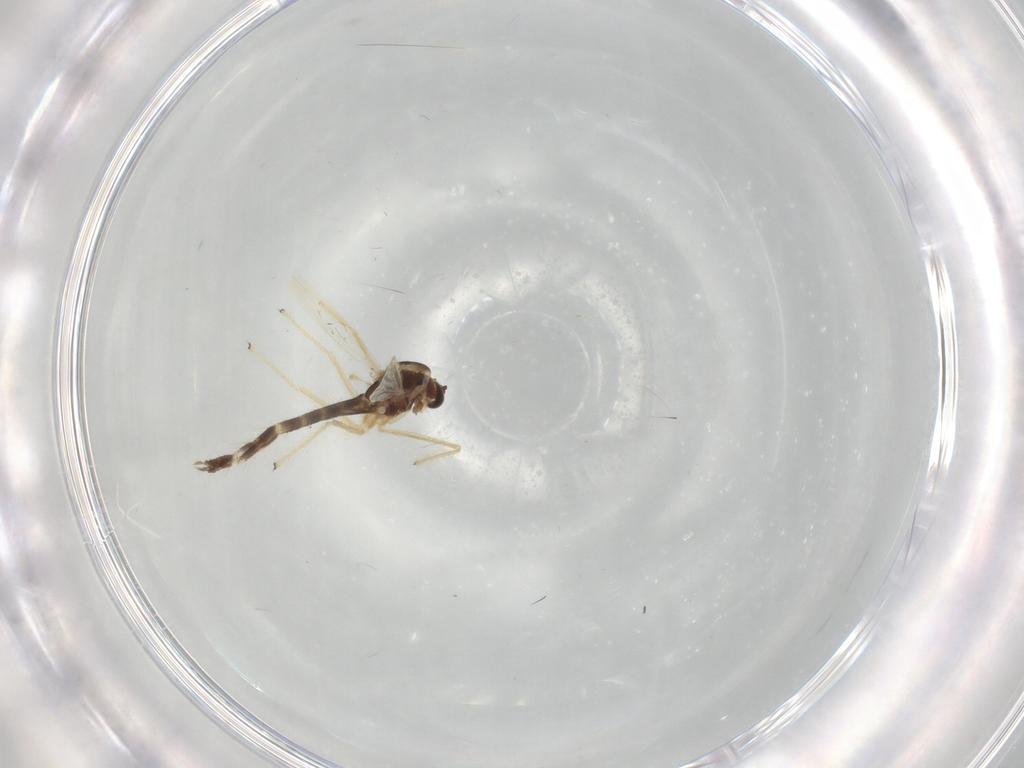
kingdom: Animalia
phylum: Arthropoda
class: Insecta
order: Diptera
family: Chironomidae
